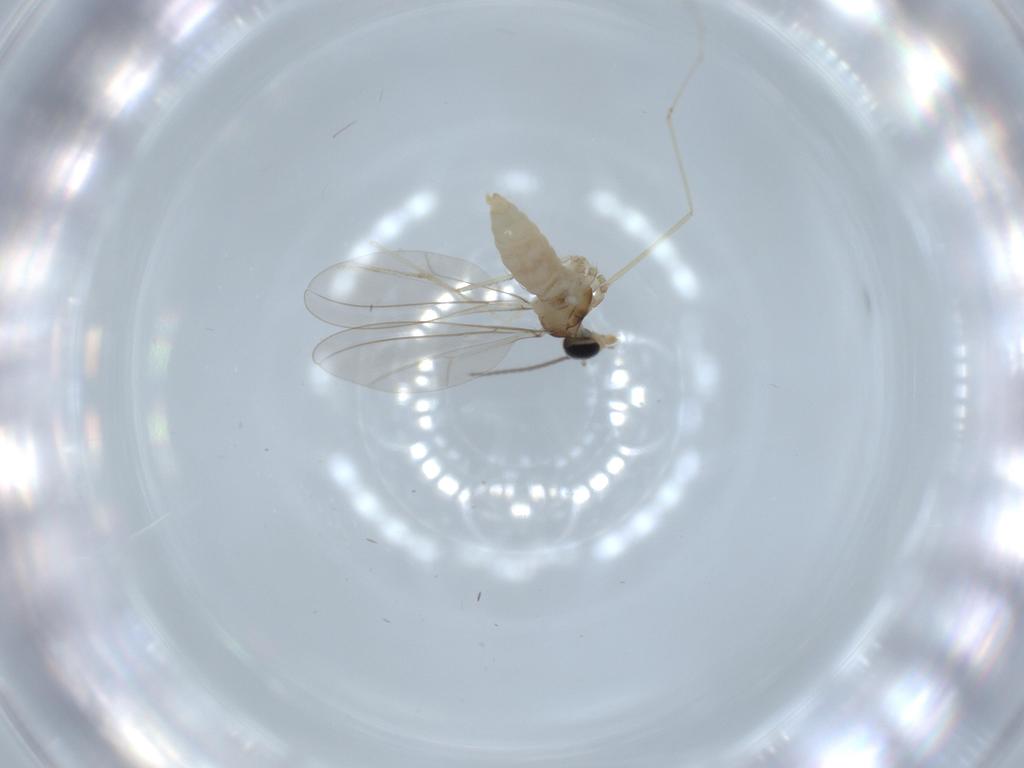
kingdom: Animalia
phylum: Arthropoda
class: Insecta
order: Diptera
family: Cecidomyiidae
